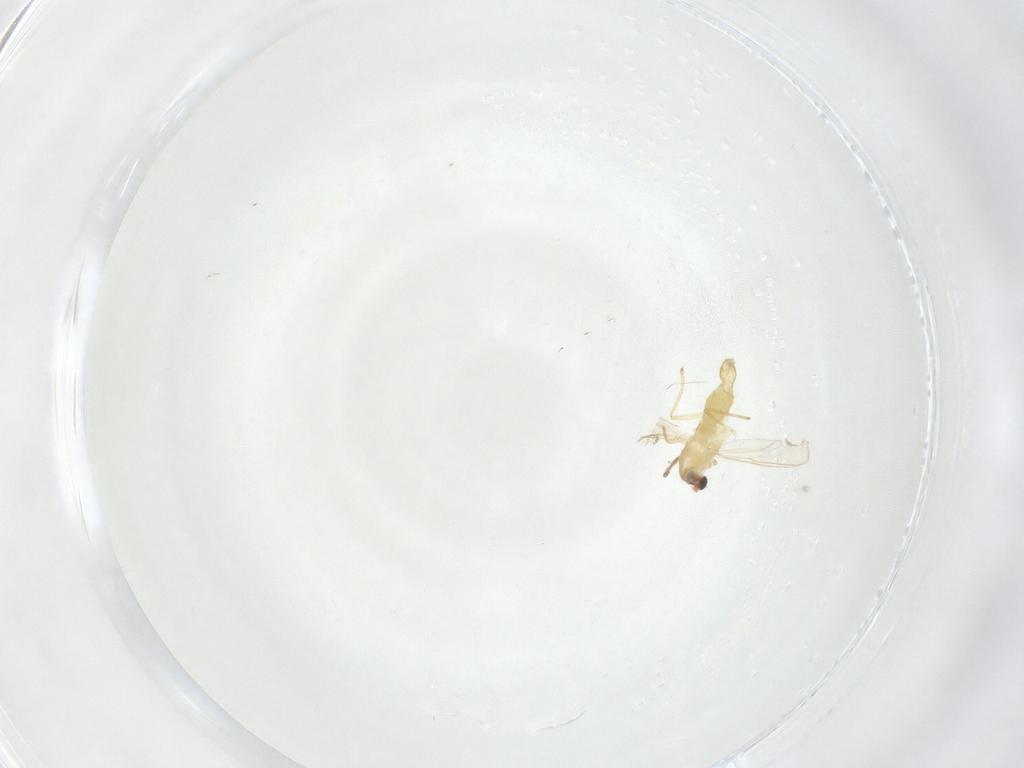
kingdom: Animalia
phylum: Arthropoda
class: Insecta
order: Diptera
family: Chironomidae
